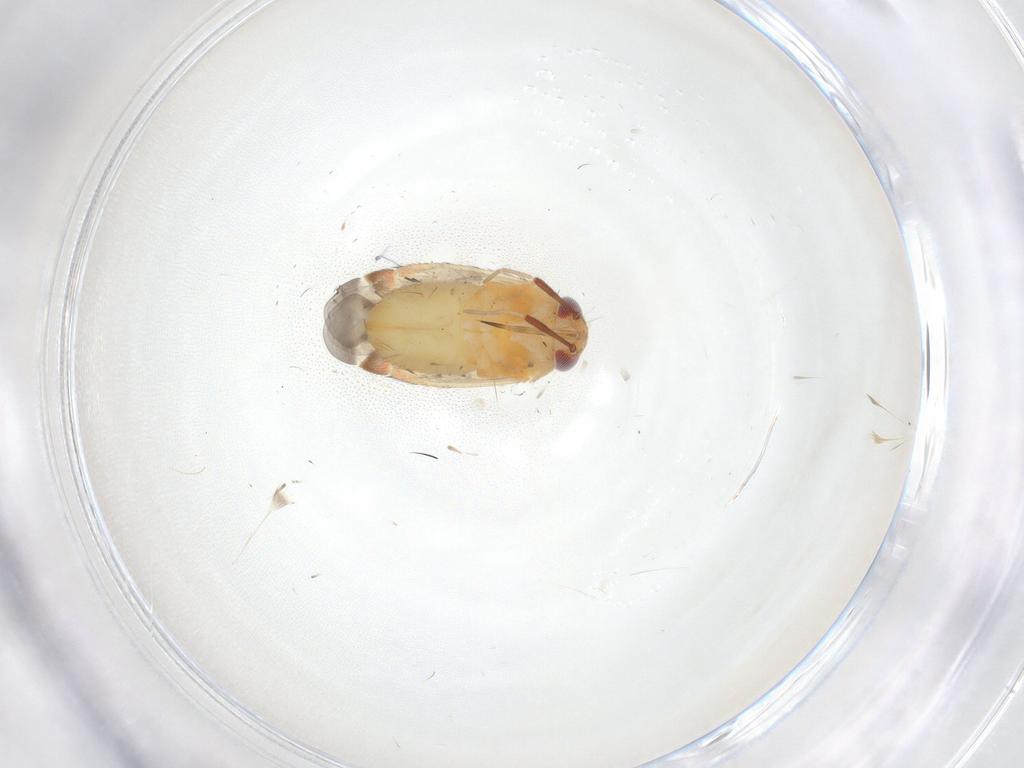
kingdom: Animalia
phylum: Arthropoda
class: Insecta
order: Hemiptera
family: Miridae
